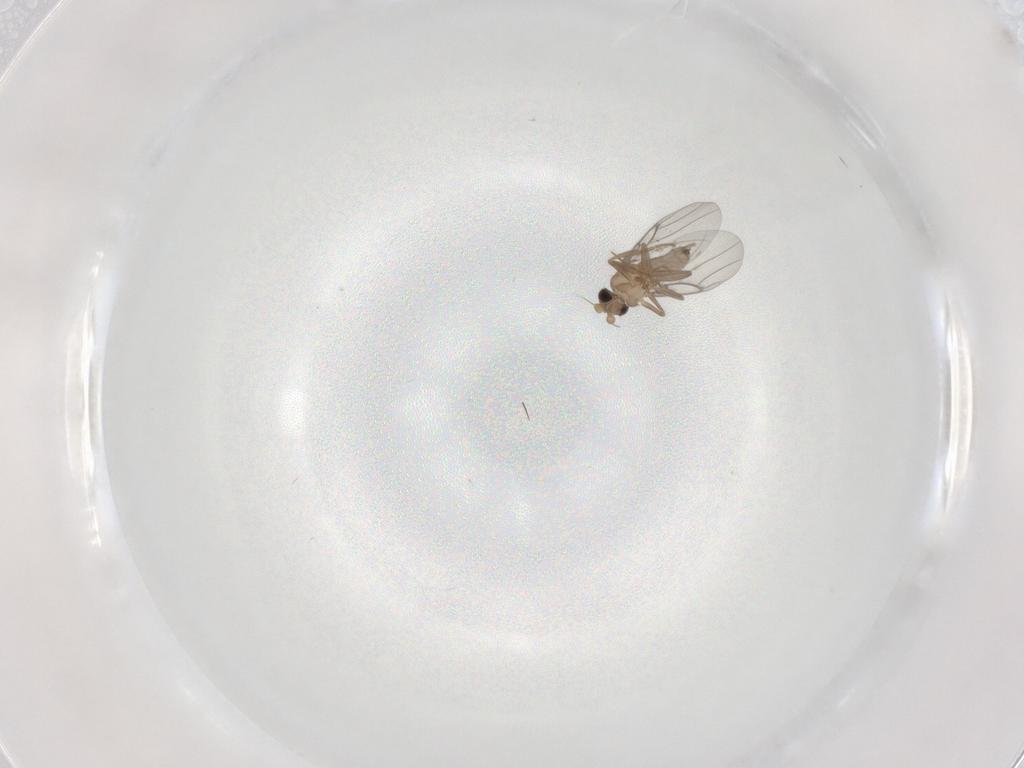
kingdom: Animalia
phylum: Arthropoda
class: Insecta
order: Diptera
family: Sciaridae
